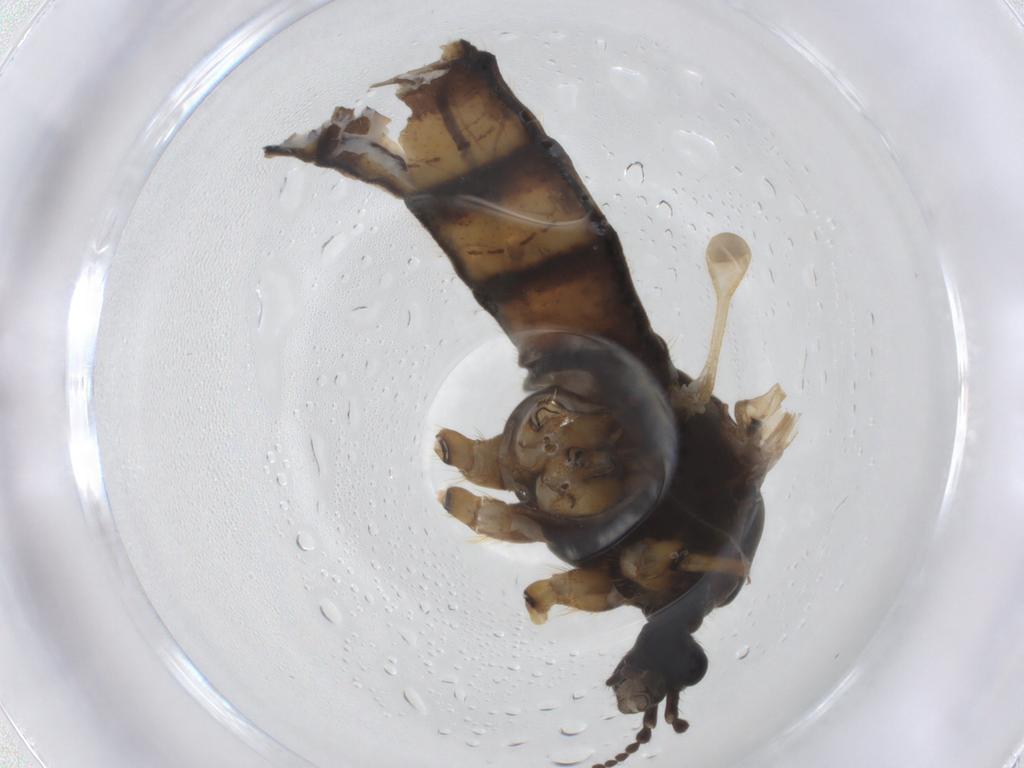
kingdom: Animalia
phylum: Arthropoda
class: Insecta
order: Diptera
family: Limoniidae
